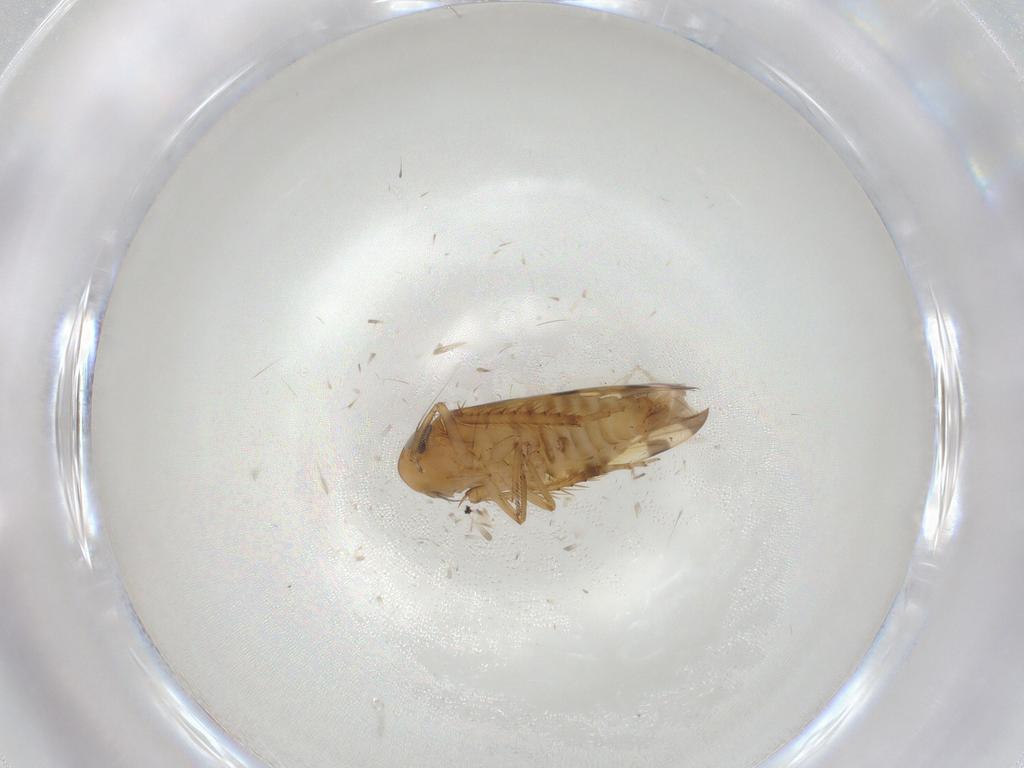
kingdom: Animalia
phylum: Arthropoda
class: Insecta
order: Hemiptera
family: Cicadellidae
